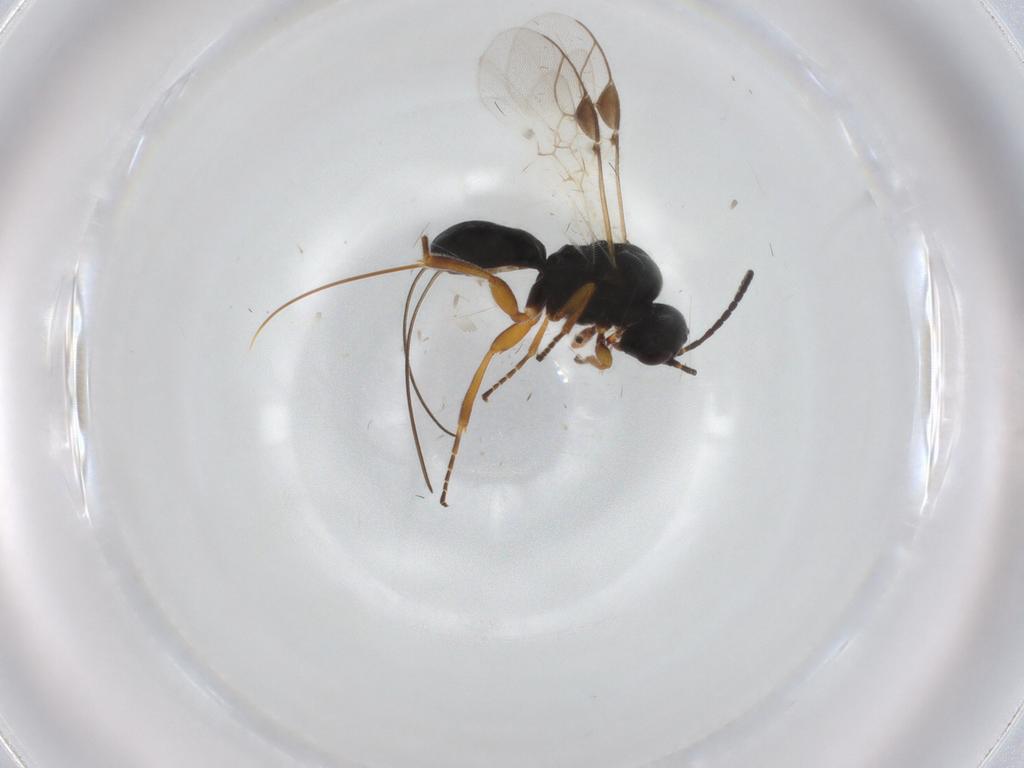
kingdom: Animalia
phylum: Arthropoda
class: Insecta
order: Hymenoptera
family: Braconidae
